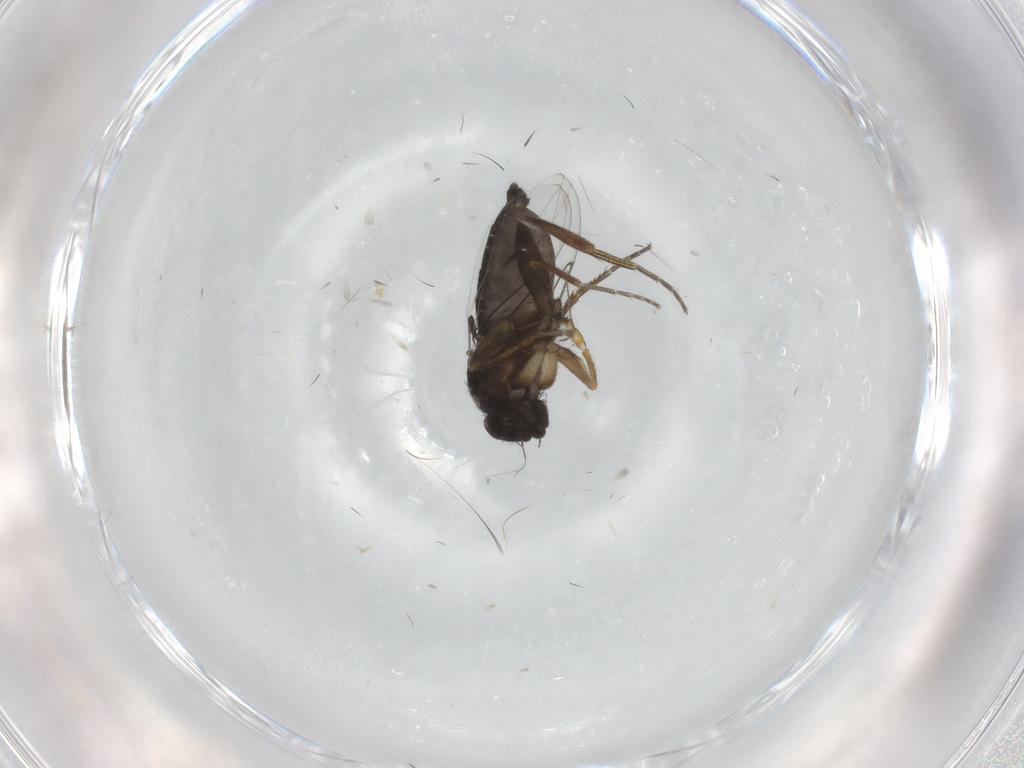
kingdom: Animalia
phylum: Arthropoda
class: Insecta
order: Diptera
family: Phoridae
